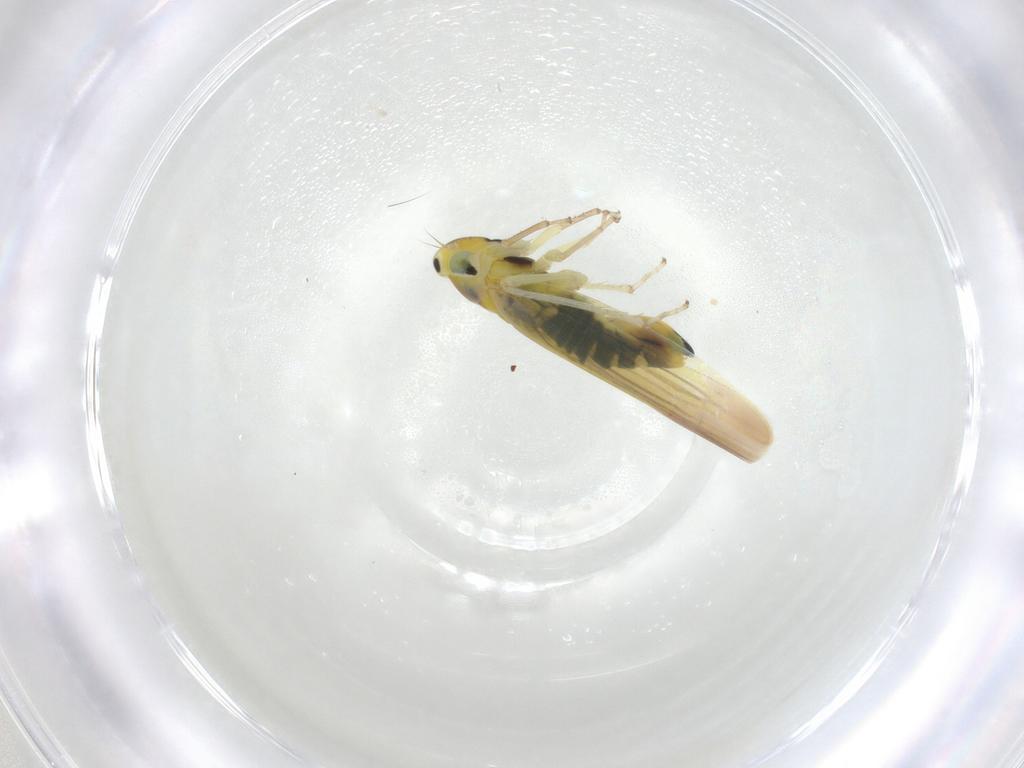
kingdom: Animalia
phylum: Arthropoda
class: Insecta
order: Hemiptera
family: Cicadellidae
